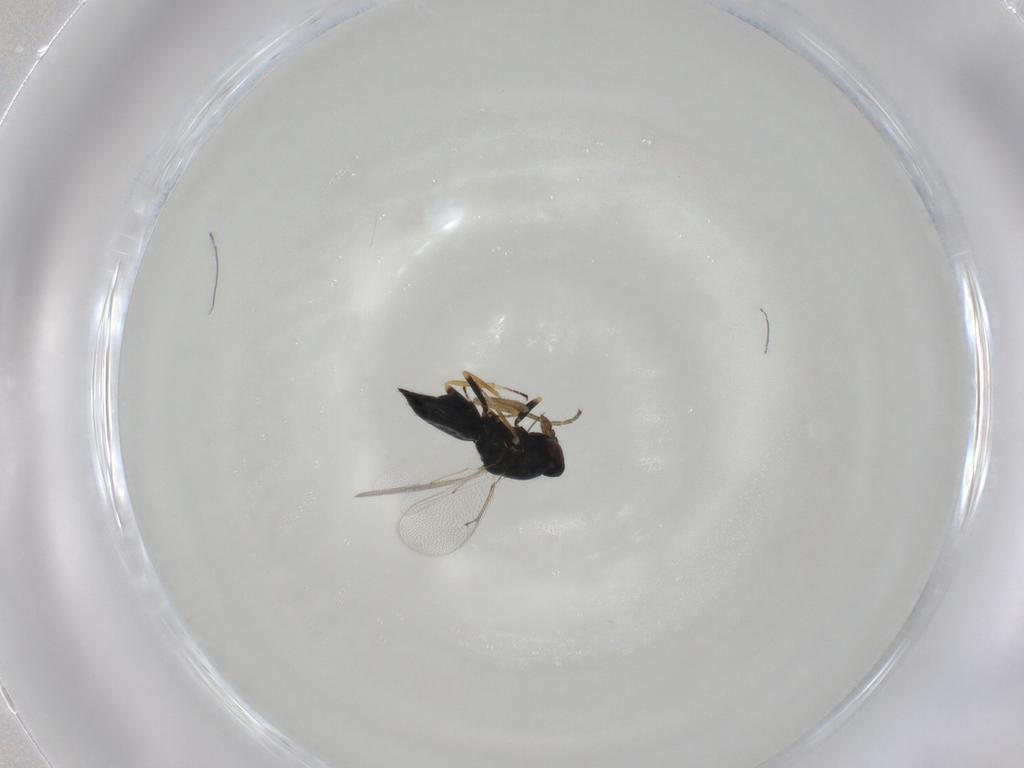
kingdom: Animalia
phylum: Arthropoda
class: Insecta
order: Hymenoptera
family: Eulophidae
